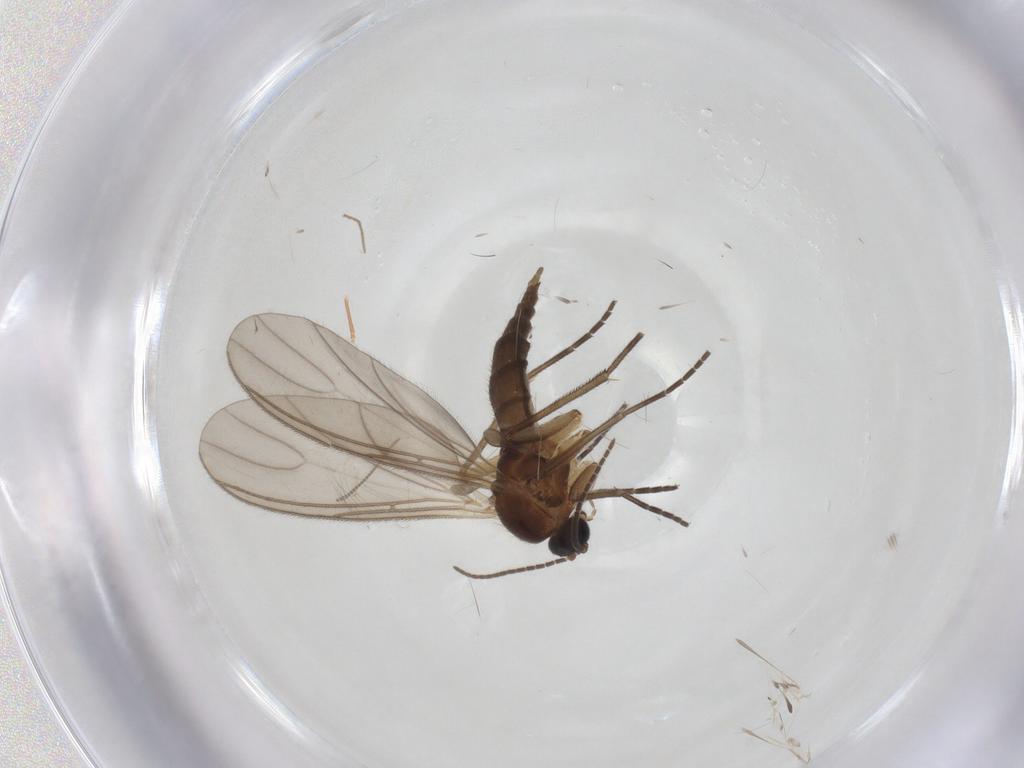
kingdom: Animalia
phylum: Arthropoda
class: Insecta
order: Diptera
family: Sciaridae
